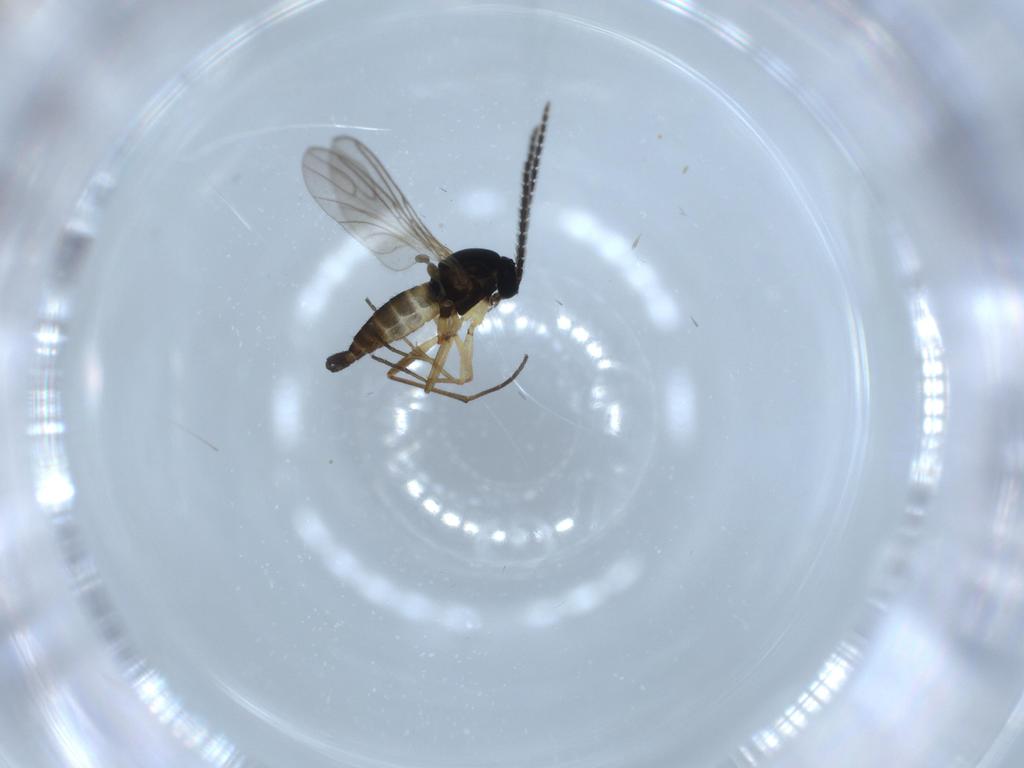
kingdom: Animalia
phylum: Arthropoda
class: Insecta
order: Diptera
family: Sciaridae
